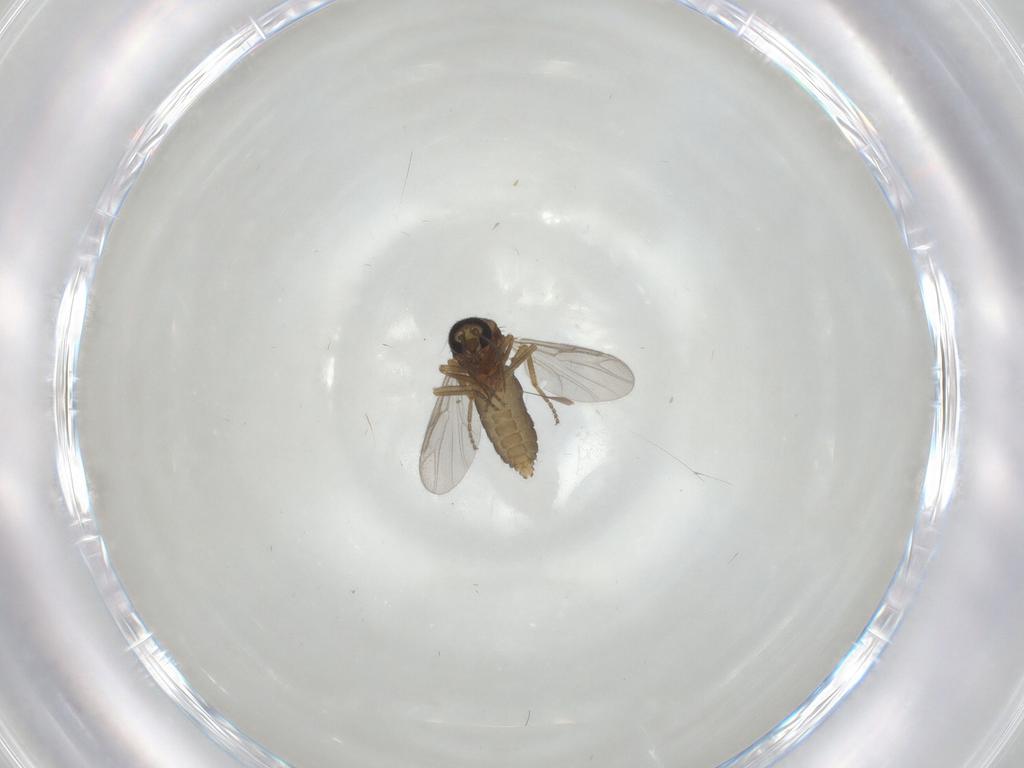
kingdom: Animalia
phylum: Arthropoda
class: Insecta
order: Diptera
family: Ceratopogonidae
